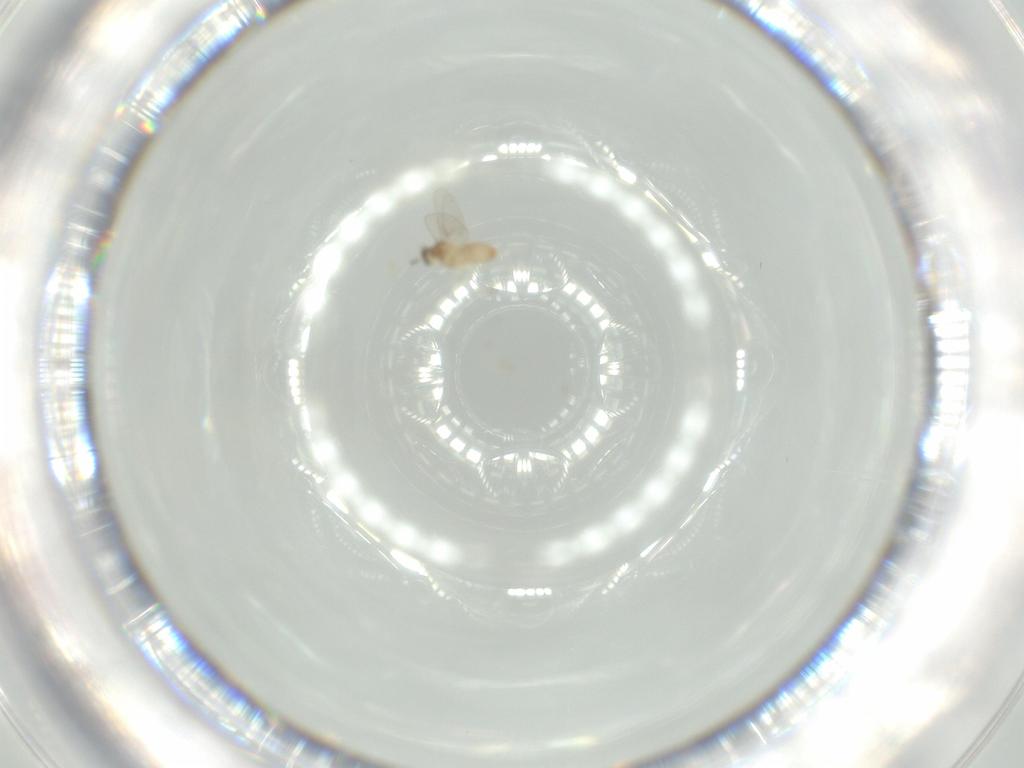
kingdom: Animalia
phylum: Arthropoda
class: Insecta
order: Diptera
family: Cecidomyiidae
